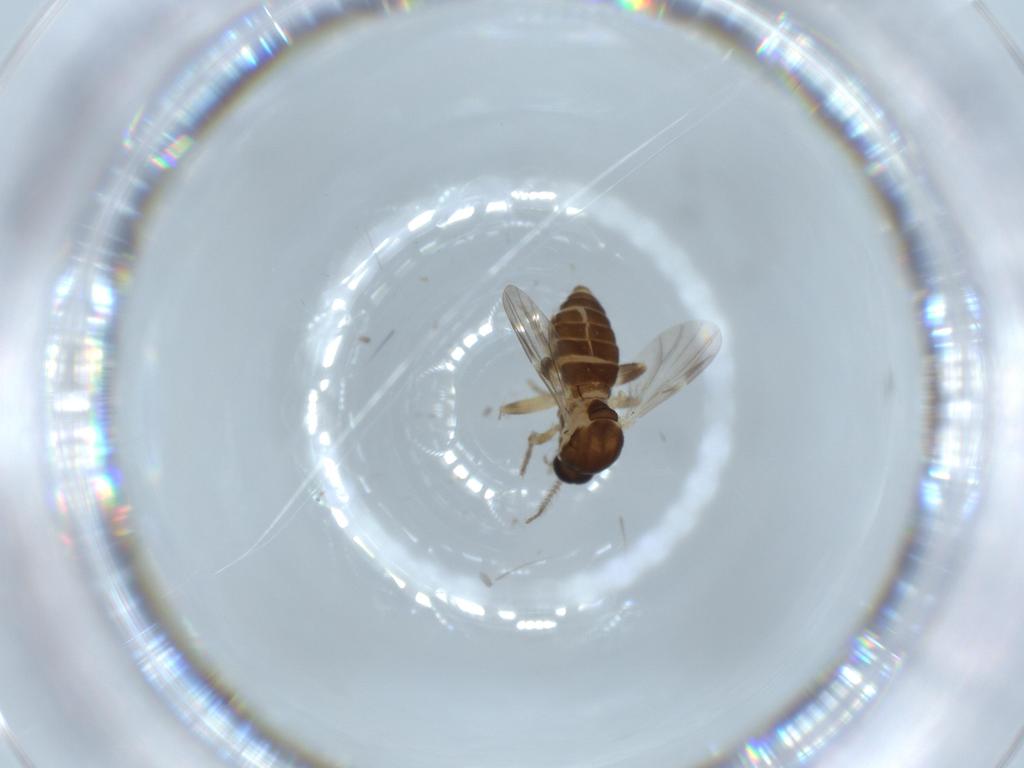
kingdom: Animalia
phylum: Arthropoda
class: Insecta
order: Diptera
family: Ceratopogonidae
